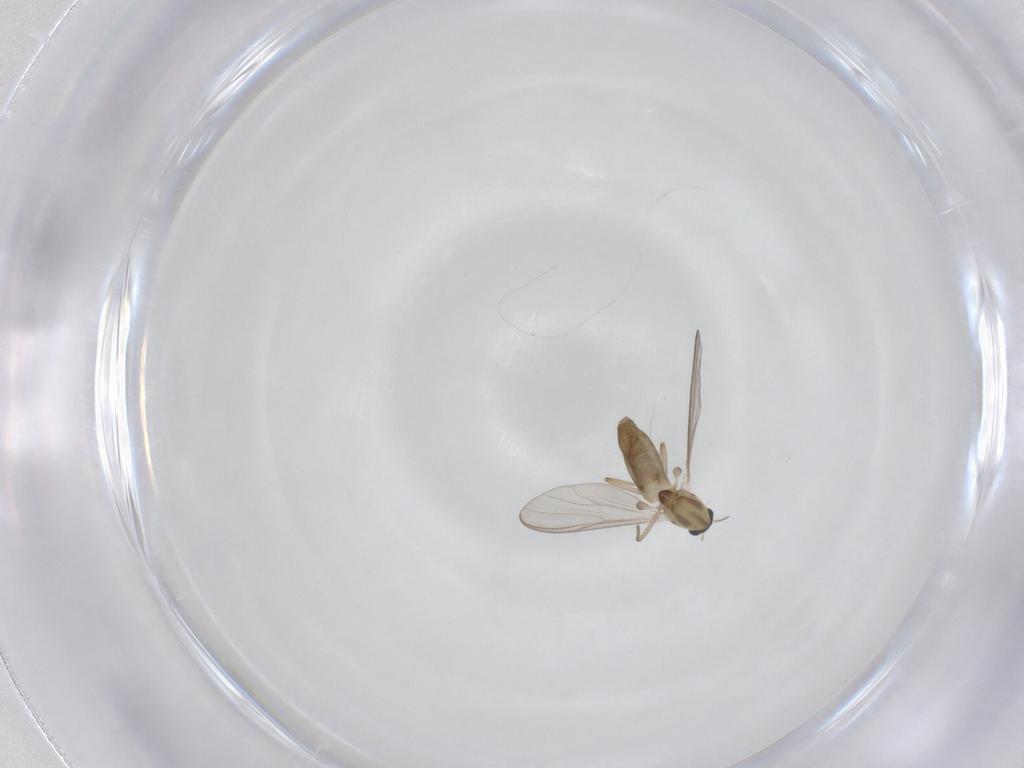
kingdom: Animalia
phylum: Arthropoda
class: Insecta
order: Diptera
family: Chironomidae
